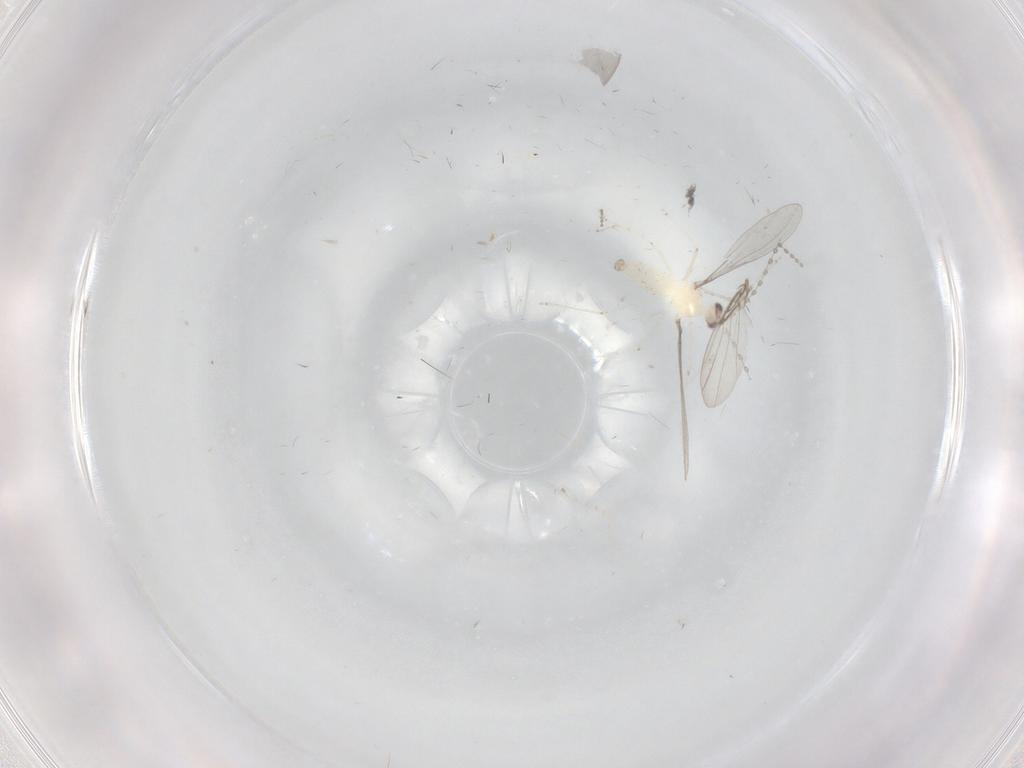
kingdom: Animalia
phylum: Arthropoda
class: Insecta
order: Diptera
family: Cecidomyiidae
